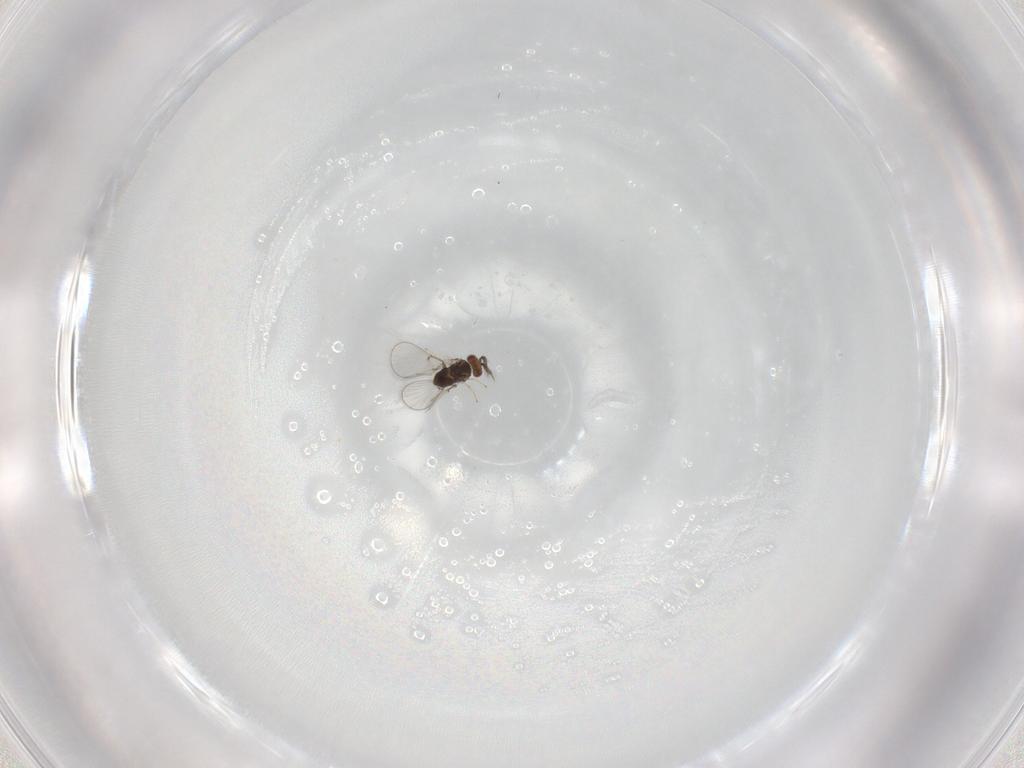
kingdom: Animalia
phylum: Arthropoda
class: Insecta
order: Hymenoptera
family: Trichogrammatidae
